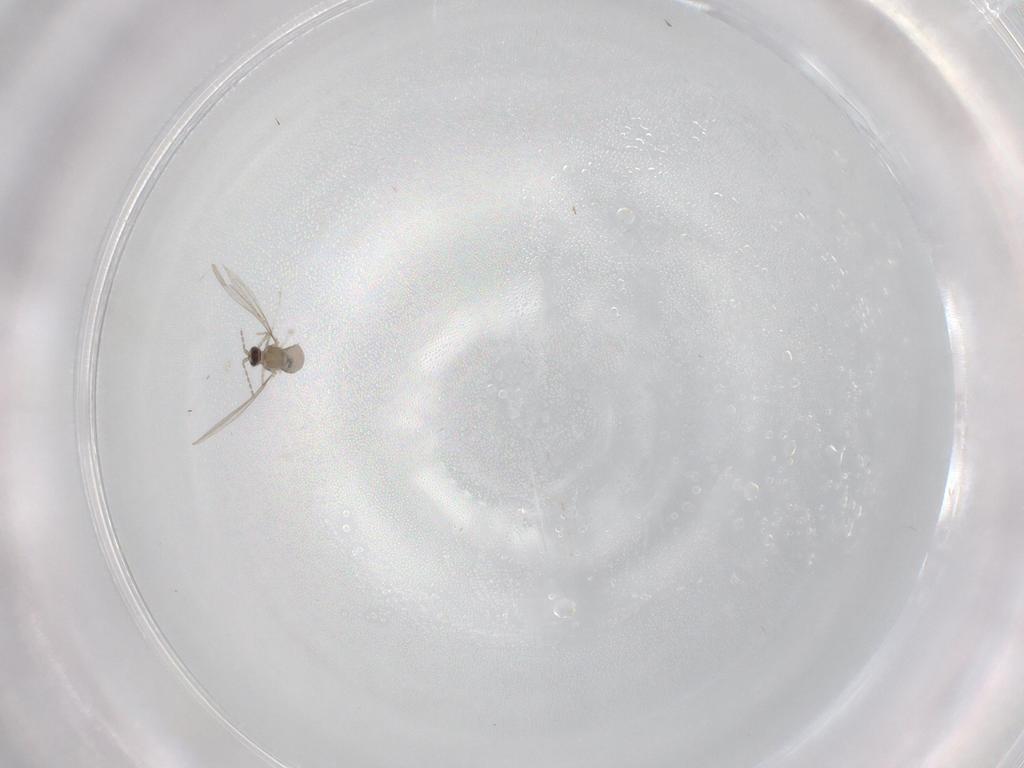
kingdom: Animalia
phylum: Arthropoda
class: Insecta
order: Diptera
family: Cecidomyiidae
